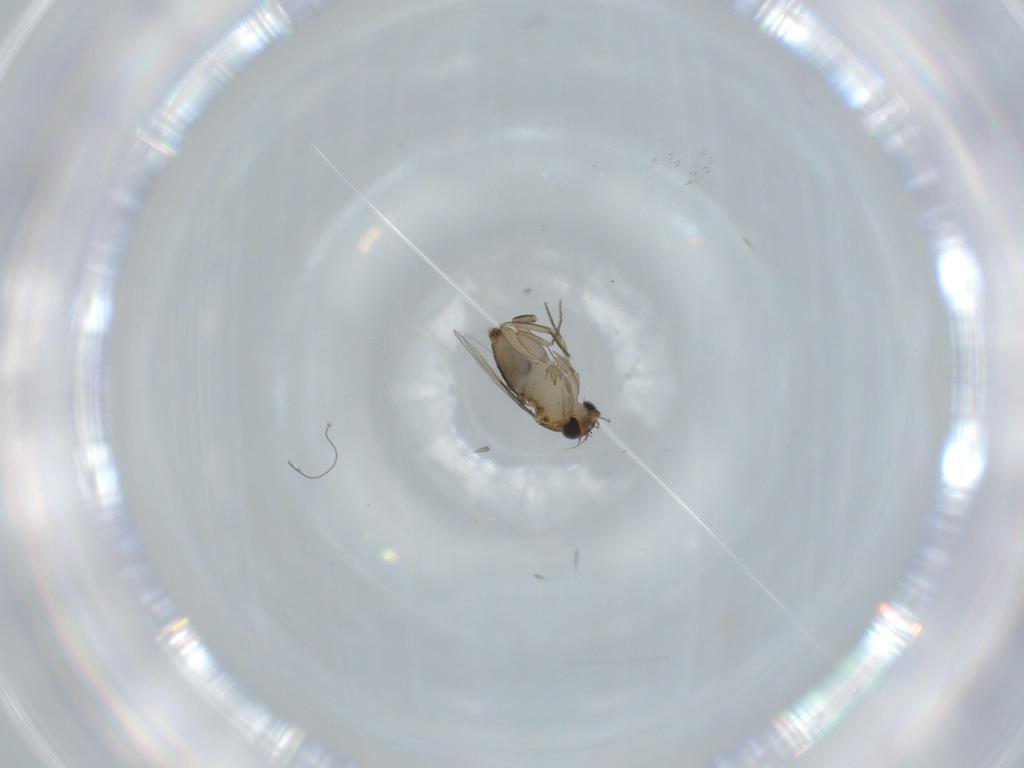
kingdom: Animalia
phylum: Arthropoda
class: Insecta
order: Diptera
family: Phoridae
